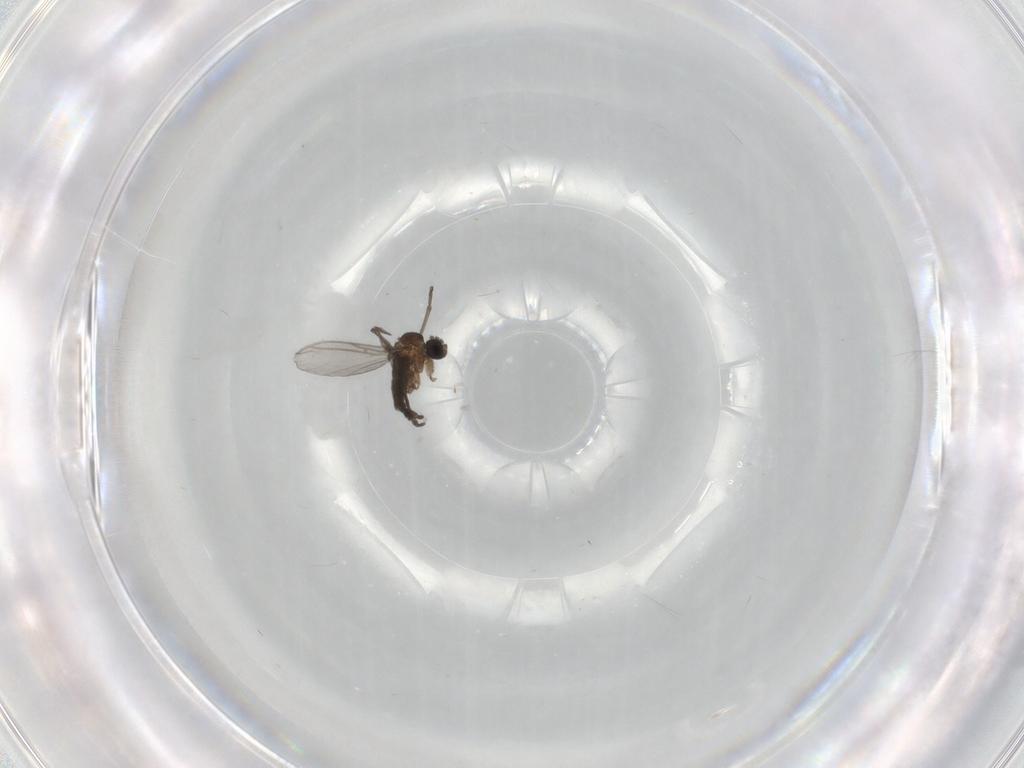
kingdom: Animalia
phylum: Arthropoda
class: Insecta
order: Diptera
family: Sciaridae
